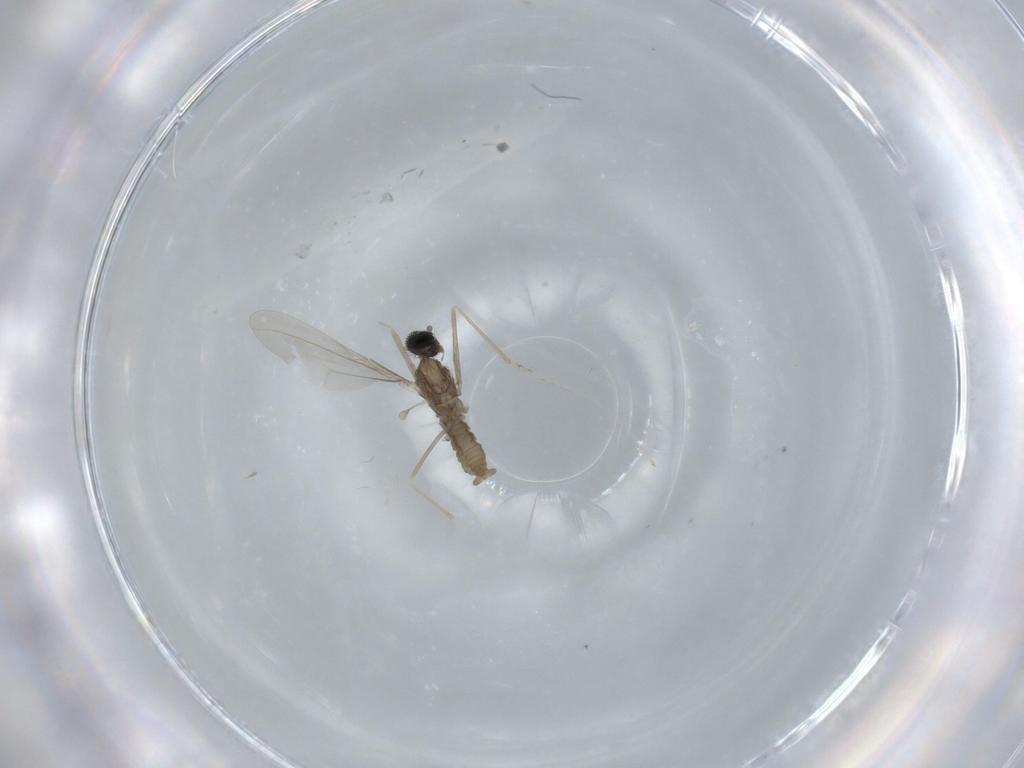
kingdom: Animalia
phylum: Arthropoda
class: Insecta
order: Diptera
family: Cecidomyiidae
